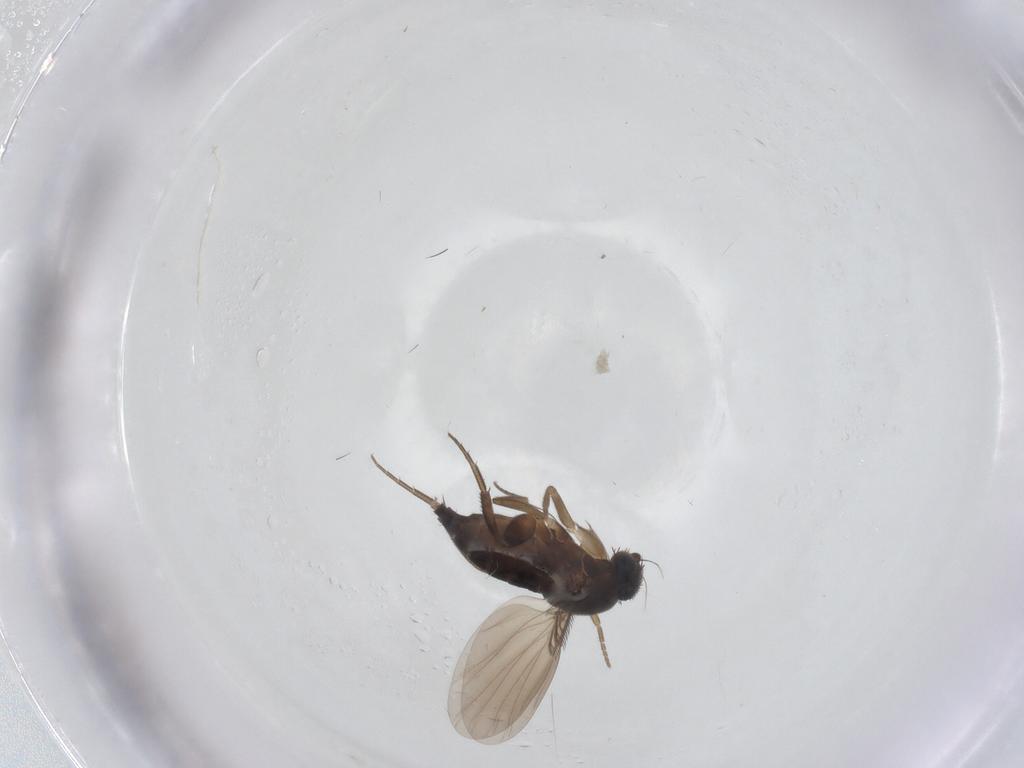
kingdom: Animalia
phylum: Arthropoda
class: Insecta
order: Diptera
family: Phoridae
